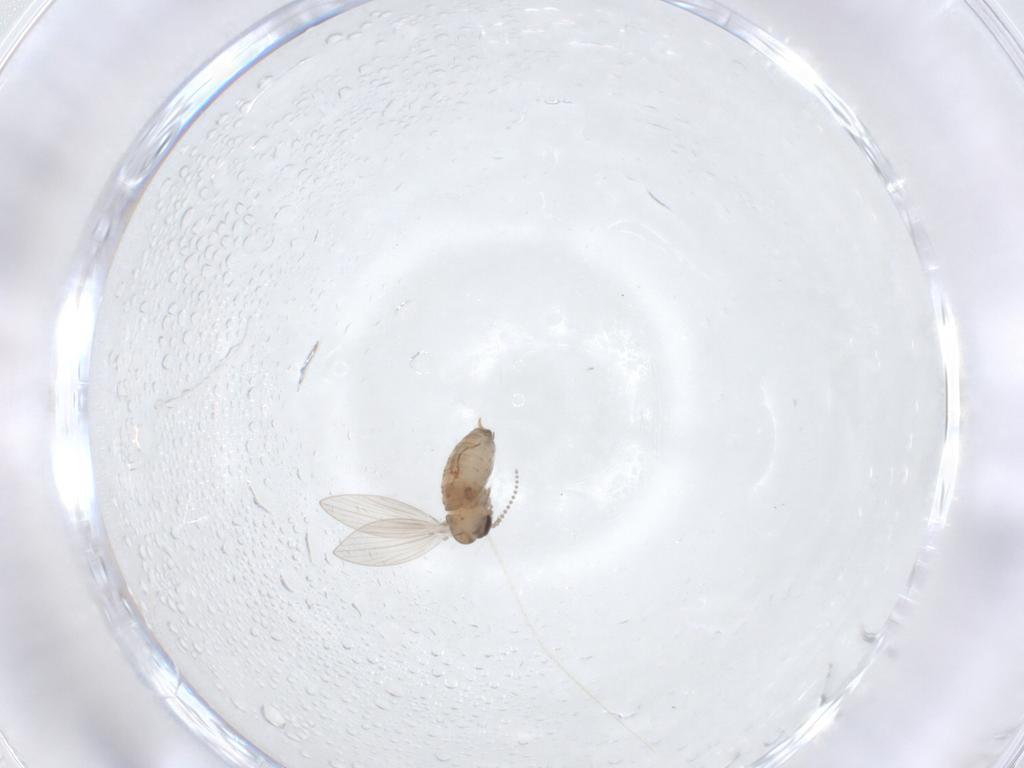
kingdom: Animalia
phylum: Arthropoda
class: Insecta
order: Diptera
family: Psychodidae
